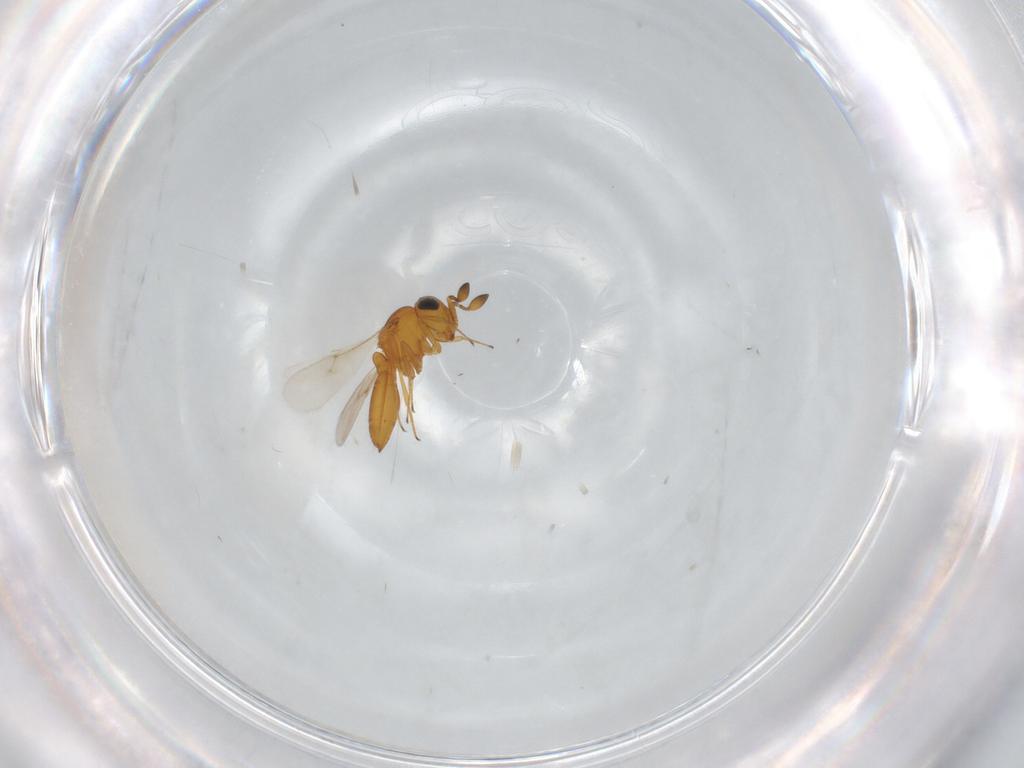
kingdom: Animalia
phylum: Arthropoda
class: Insecta
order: Hymenoptera
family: Scelionidae
